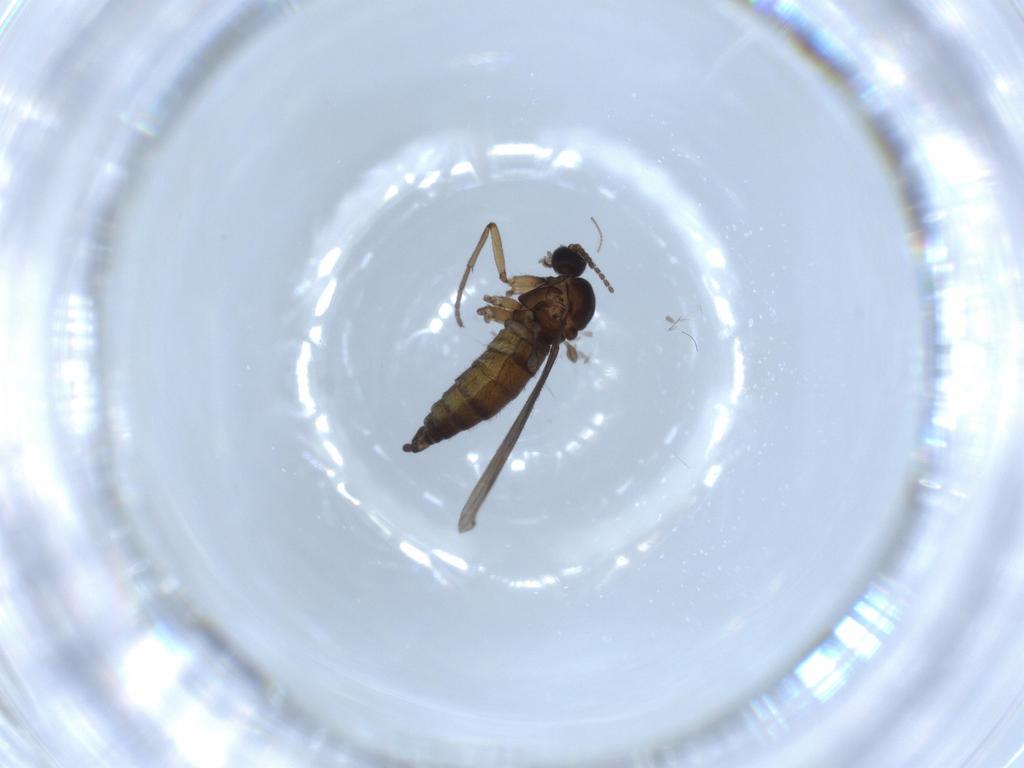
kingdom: Animalia
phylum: Arthropoda
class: Insecta
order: Diptera
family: Sciaridae
